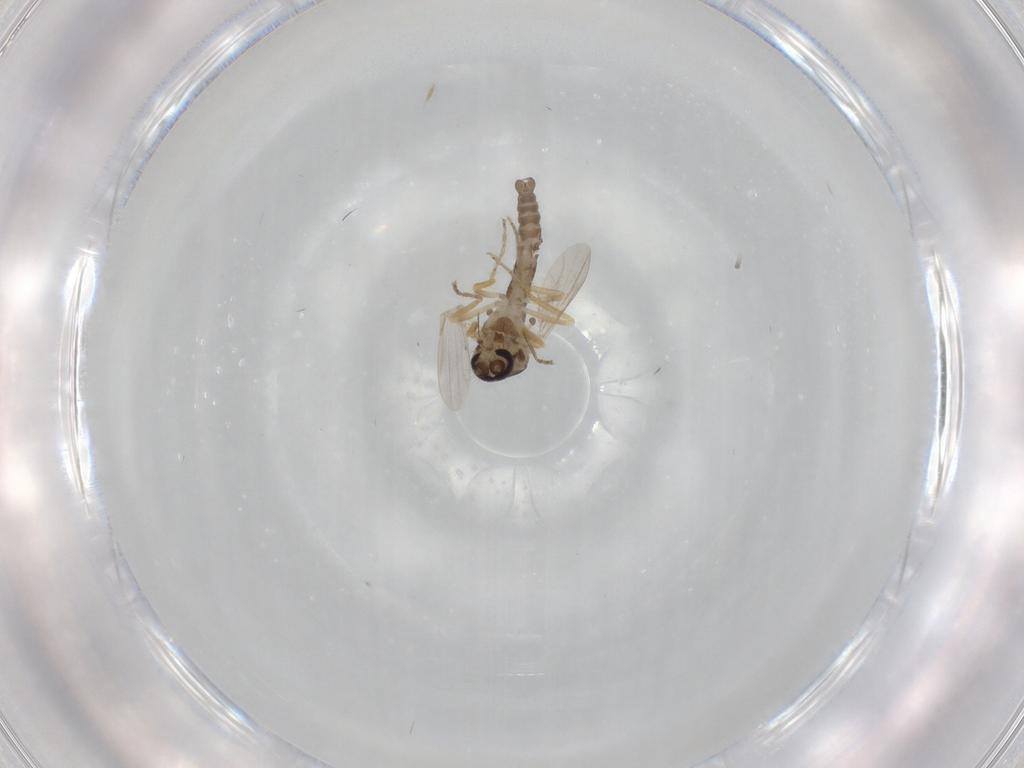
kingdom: Animalia
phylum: Arthropoda
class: Insecta
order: Diptera
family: Ceratopogonidae
